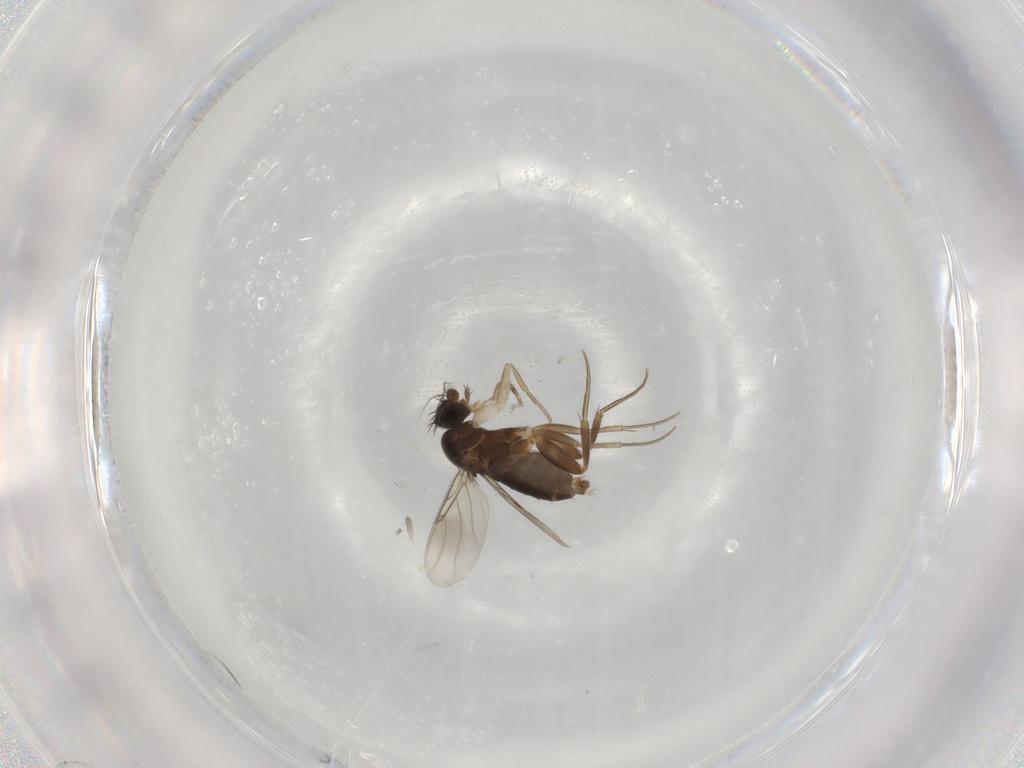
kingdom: Animalia
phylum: Arthropoda
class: Insecta
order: Diptera
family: Phoridae
